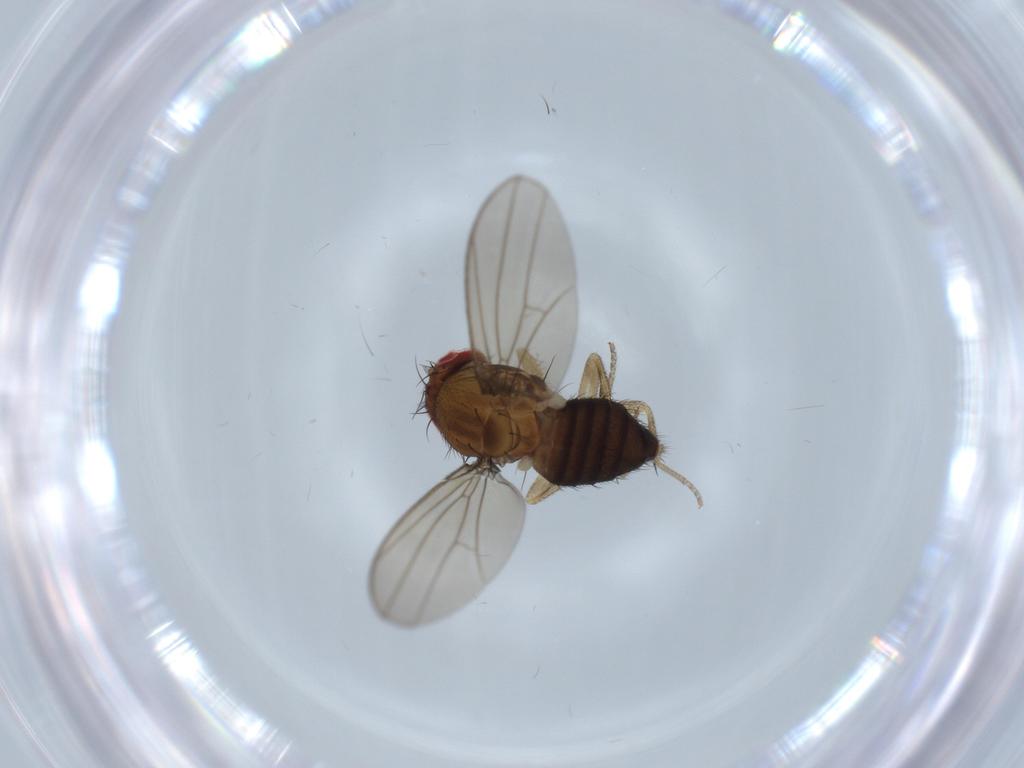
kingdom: Animalia
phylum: Arthropoda
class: Insecta
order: Diptera
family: Drosophilidae
